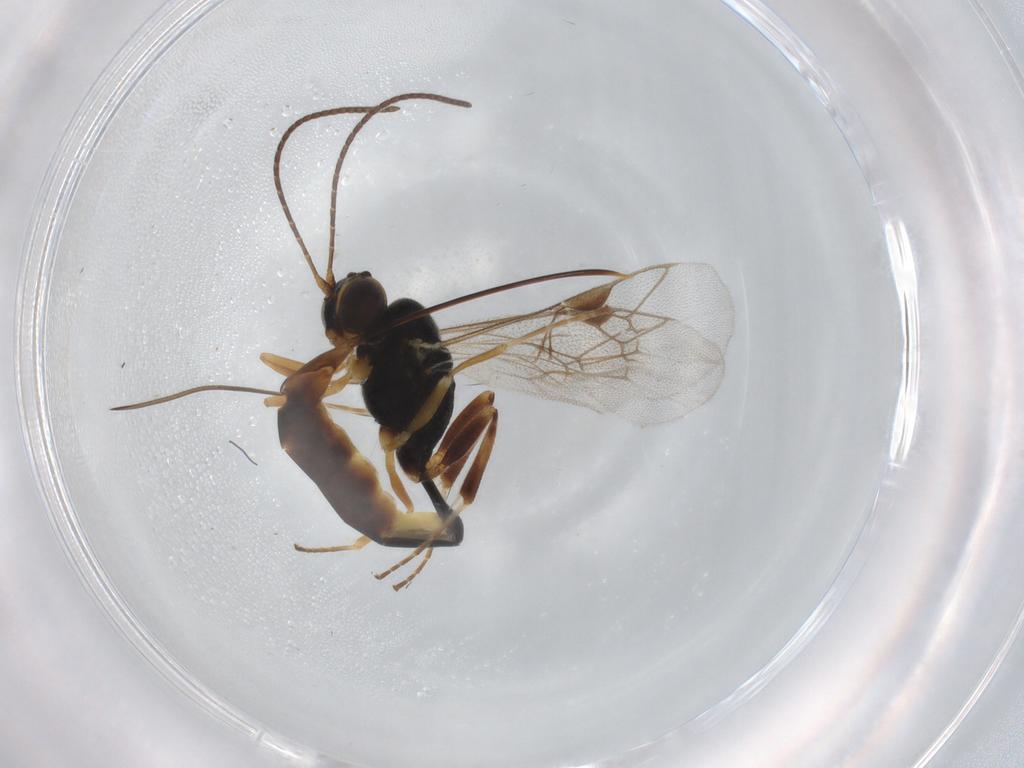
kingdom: Animalia
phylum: Arthropoda
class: Insecta
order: Hymenoptera
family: Ichneumonidae
